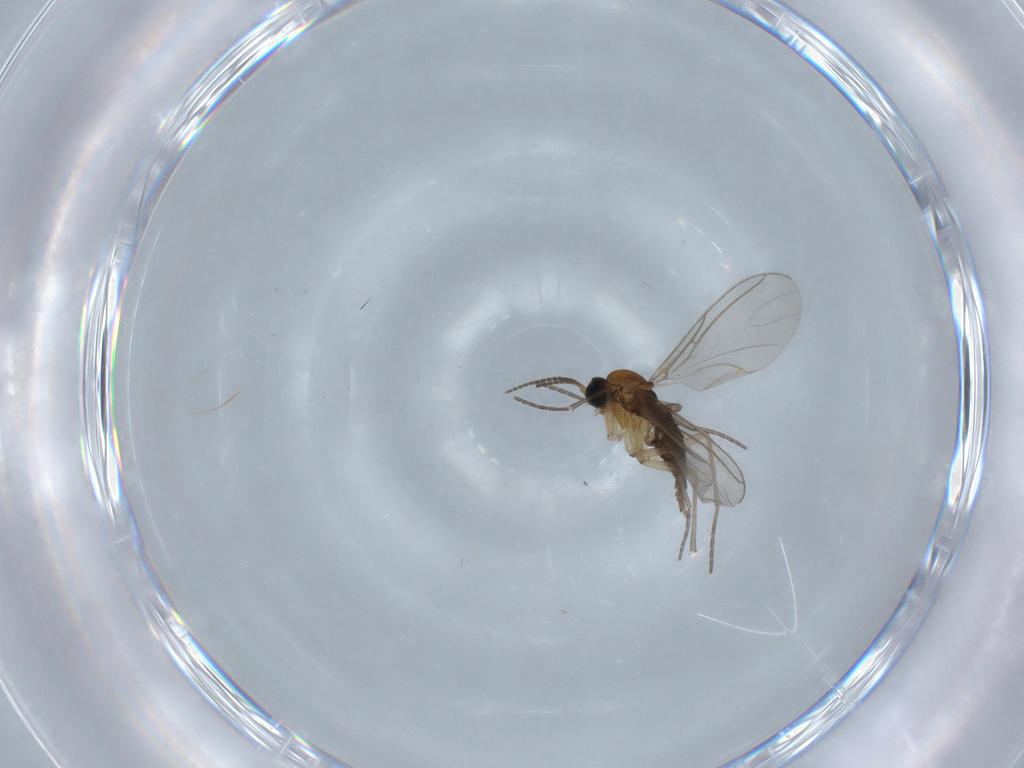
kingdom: Animalia
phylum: Arthropoda
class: Insecta
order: Diptera
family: Sciaridae
